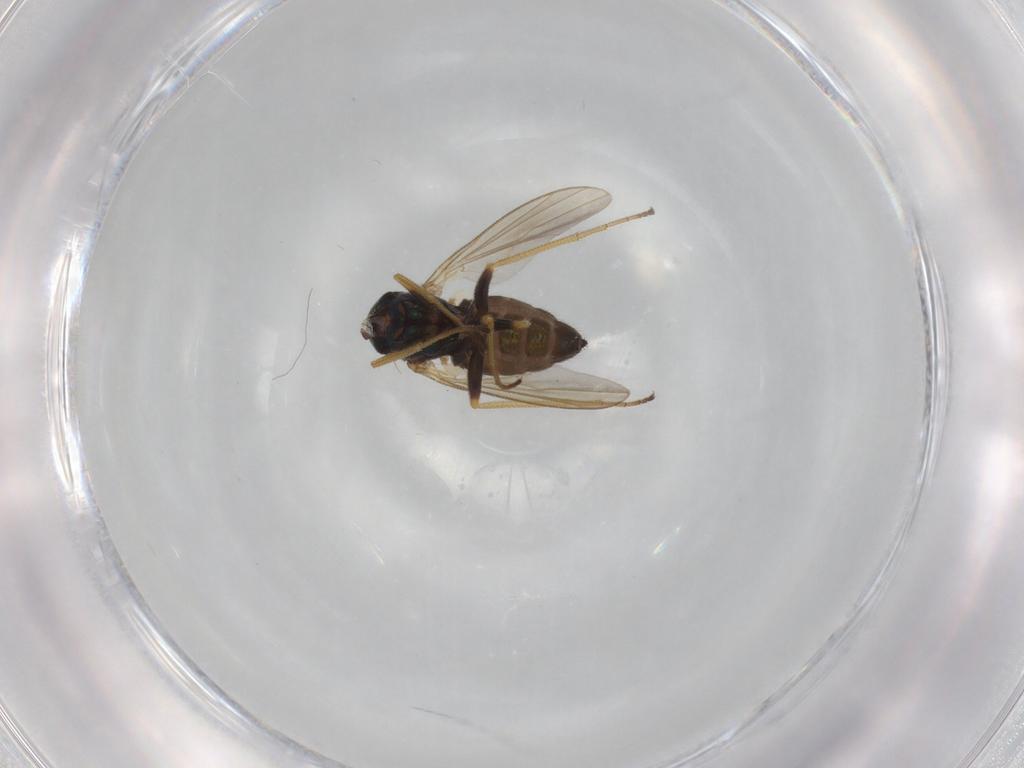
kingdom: Animalia
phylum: Arthropoda
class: Insecta
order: Diptera
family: Dolichopodidae
